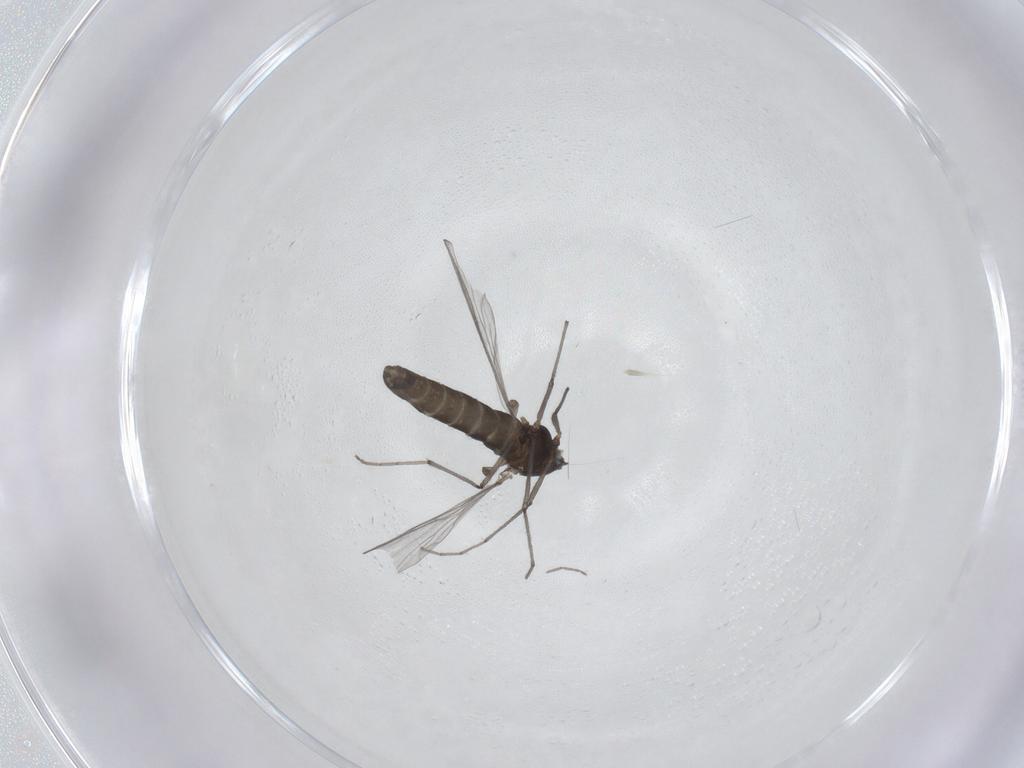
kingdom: Animalia
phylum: Arthropoda
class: Insecta
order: Diptera
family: Chironomidae
